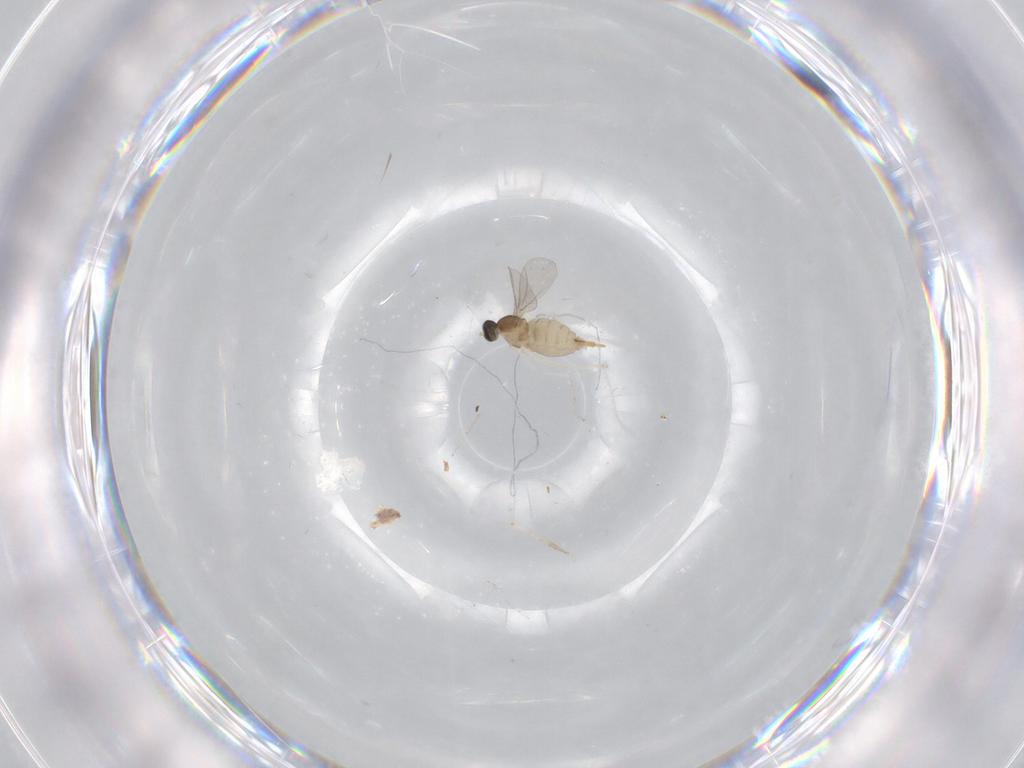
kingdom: Animalia
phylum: Arthropoda
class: Insecta
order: Diptera
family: Cecidomyiidae
